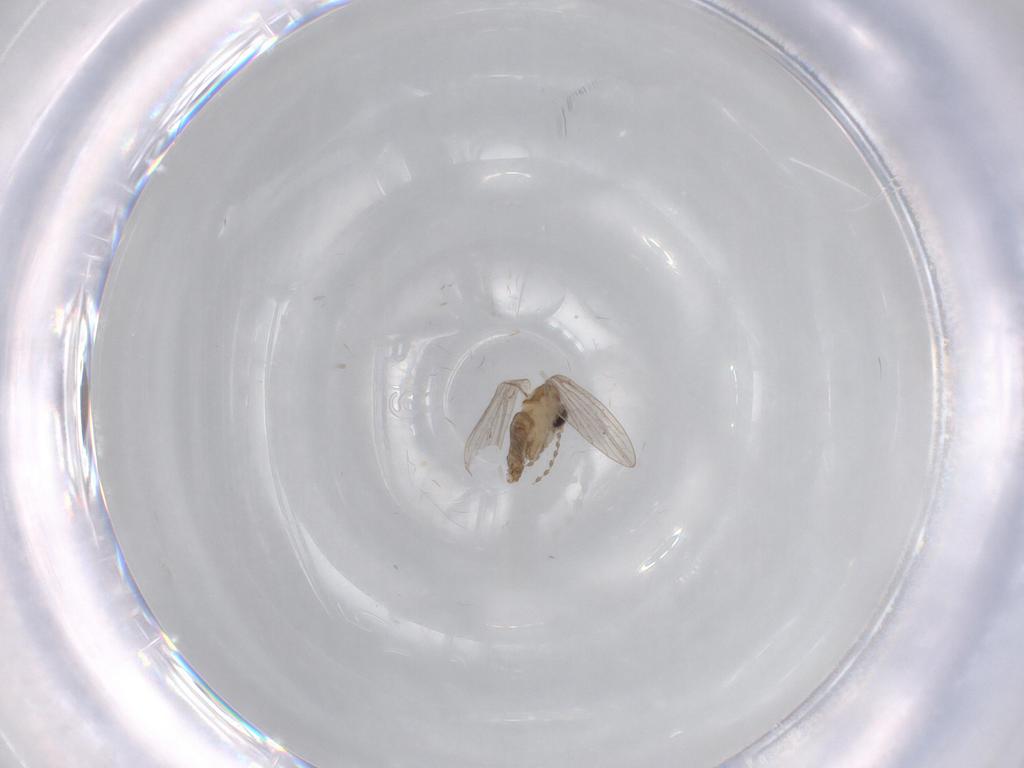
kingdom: Animalia
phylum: Arthropoda
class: Insecta
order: Diptera
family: Psychodidae
